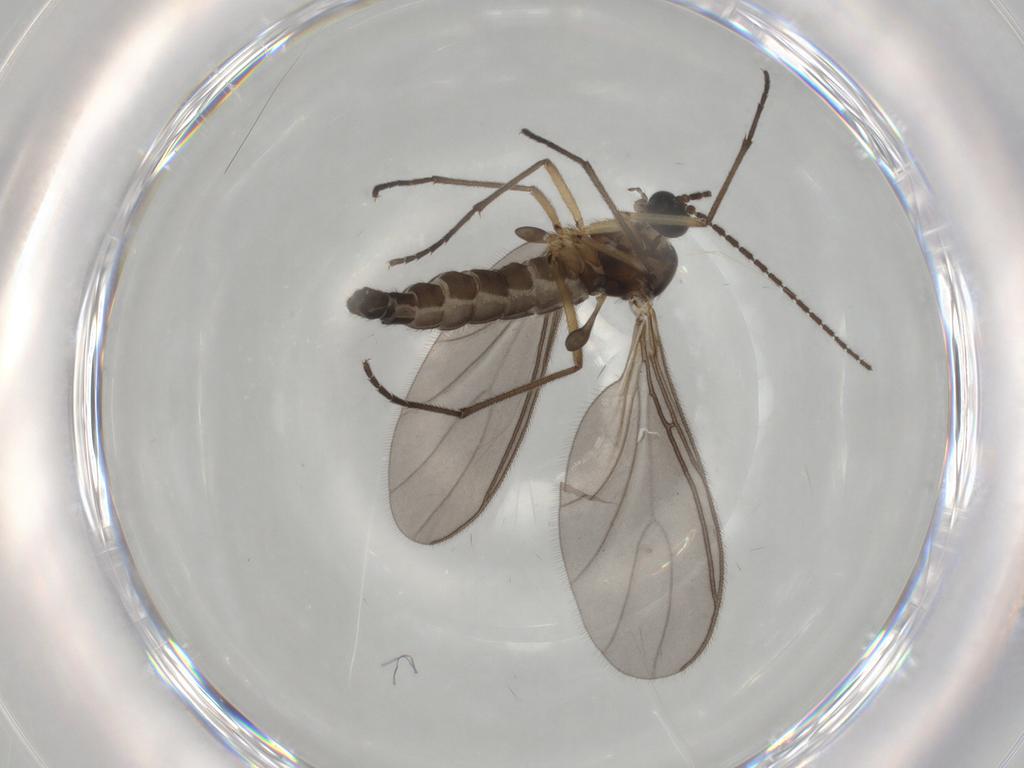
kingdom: Animalia
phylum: Arthropoda
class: Insecta
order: Diptera
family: Sciaridae
